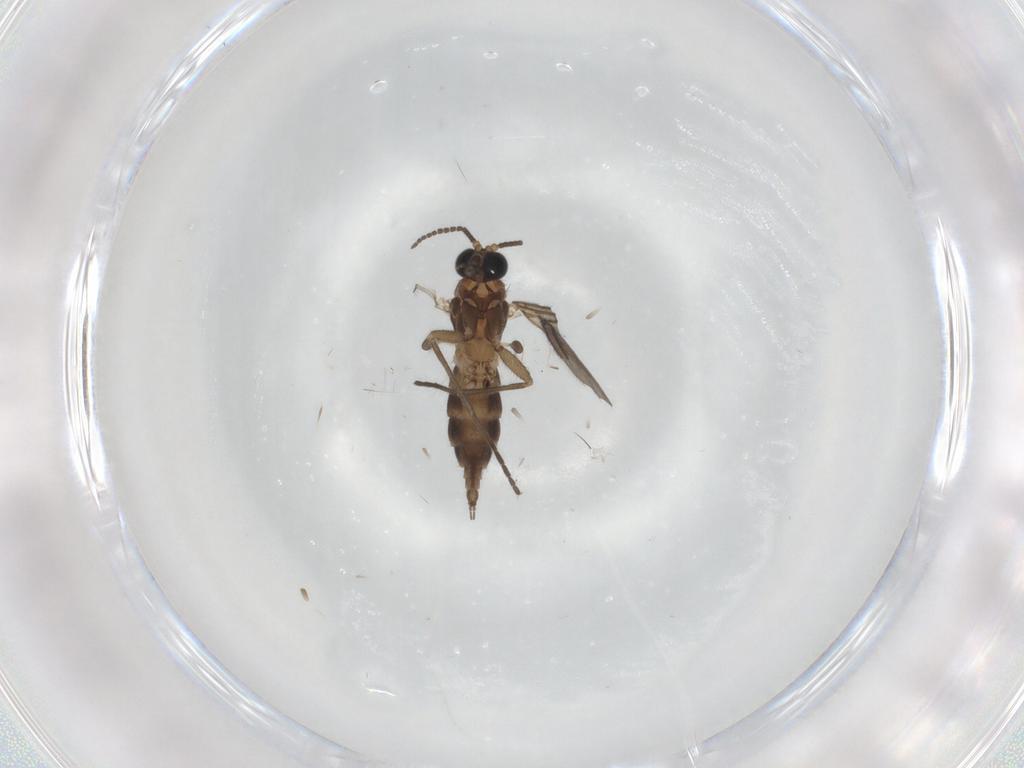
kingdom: Animalia
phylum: Arthropoda
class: Insecta
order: Diptera
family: Sciaridae
